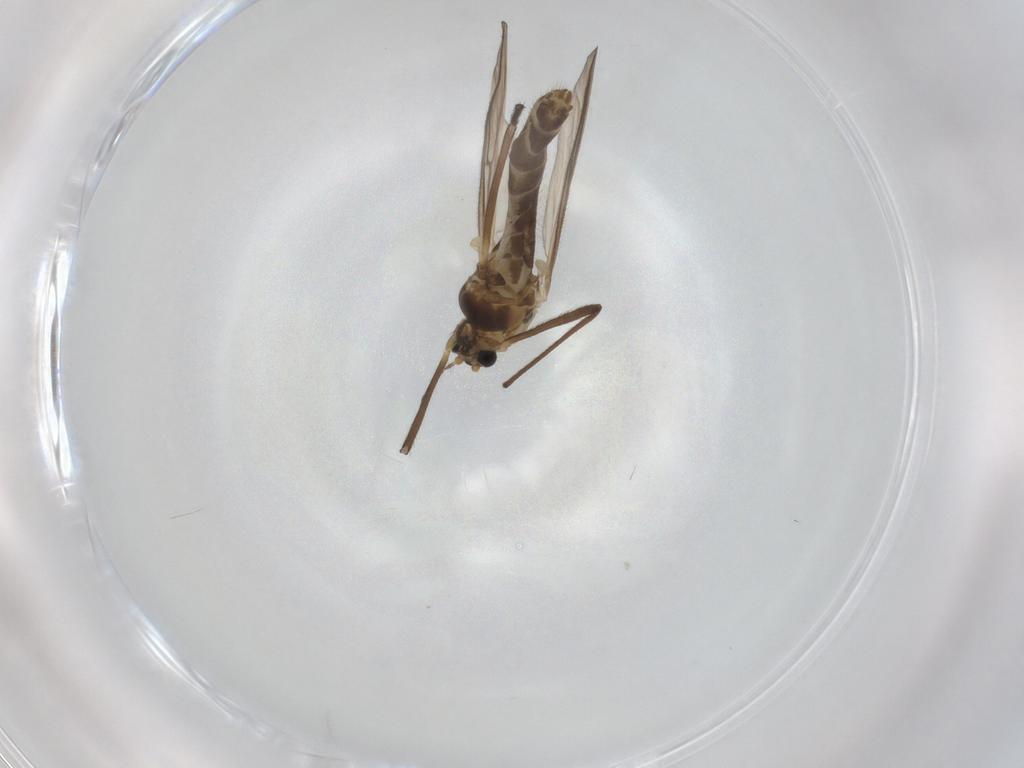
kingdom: Animalia
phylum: Arthropoda
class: Insecta
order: Diptera
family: Chironomidae
